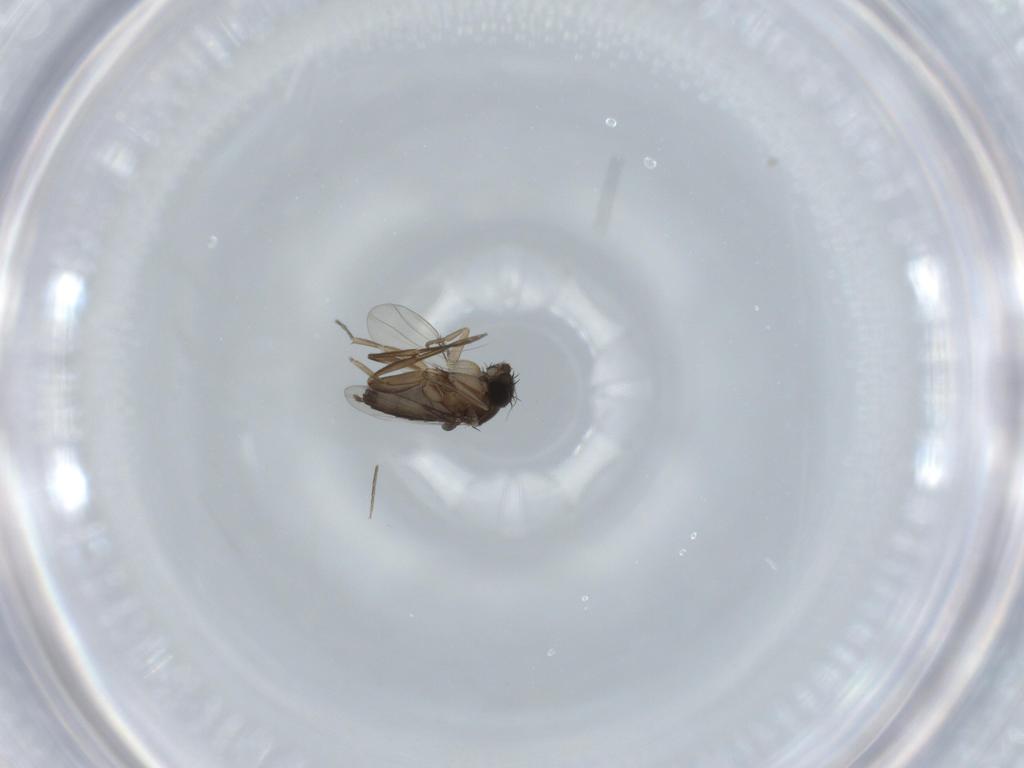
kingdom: Animalia
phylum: Arthropoda
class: Insecta
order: Diptera
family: Phoridae
